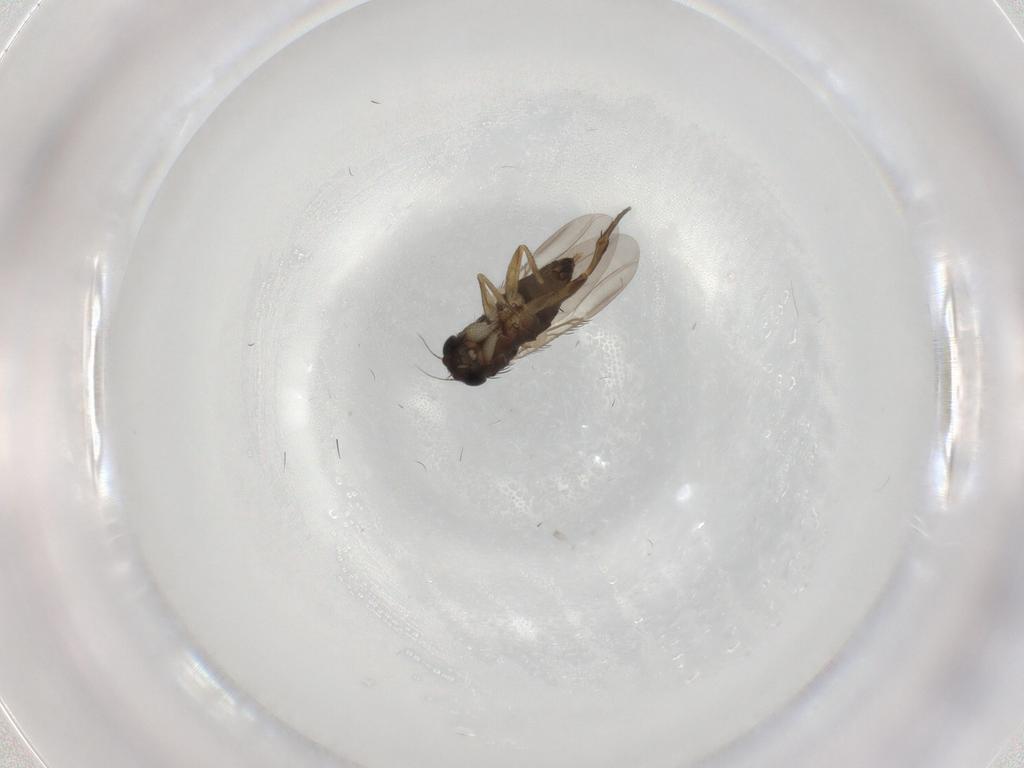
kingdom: Animalia
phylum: Arthropoda
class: Insecta
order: Diptera
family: Phoridae
